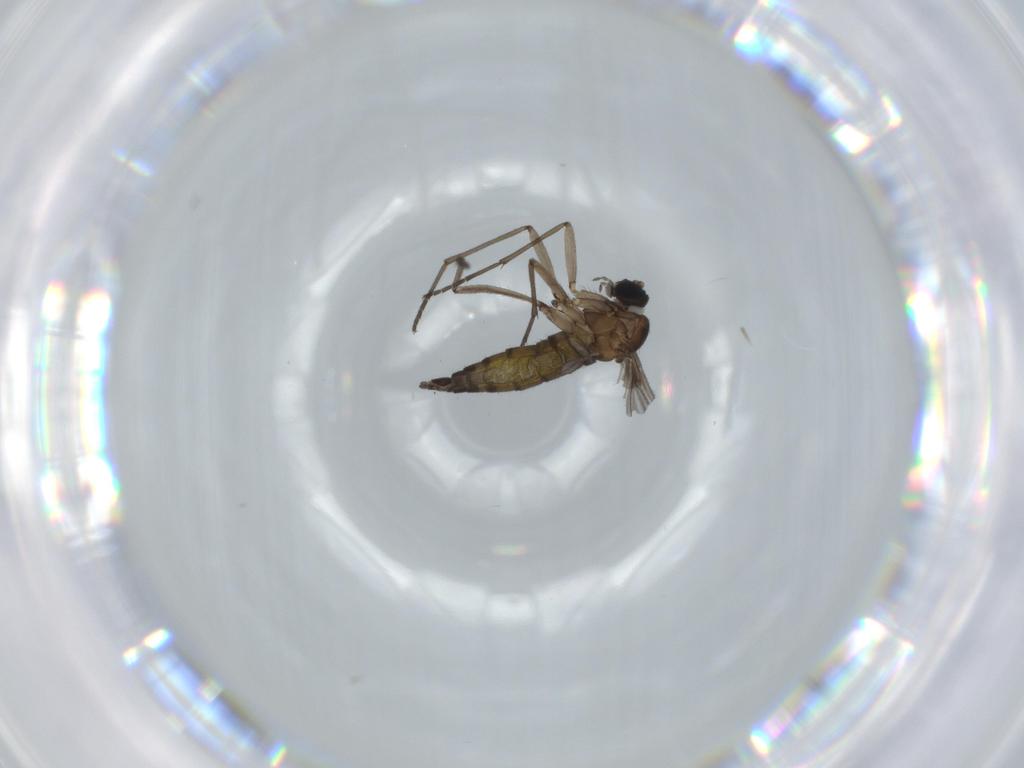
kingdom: Animalia
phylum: Arthropoda
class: Insecta
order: Diptera
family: Sciaridae
